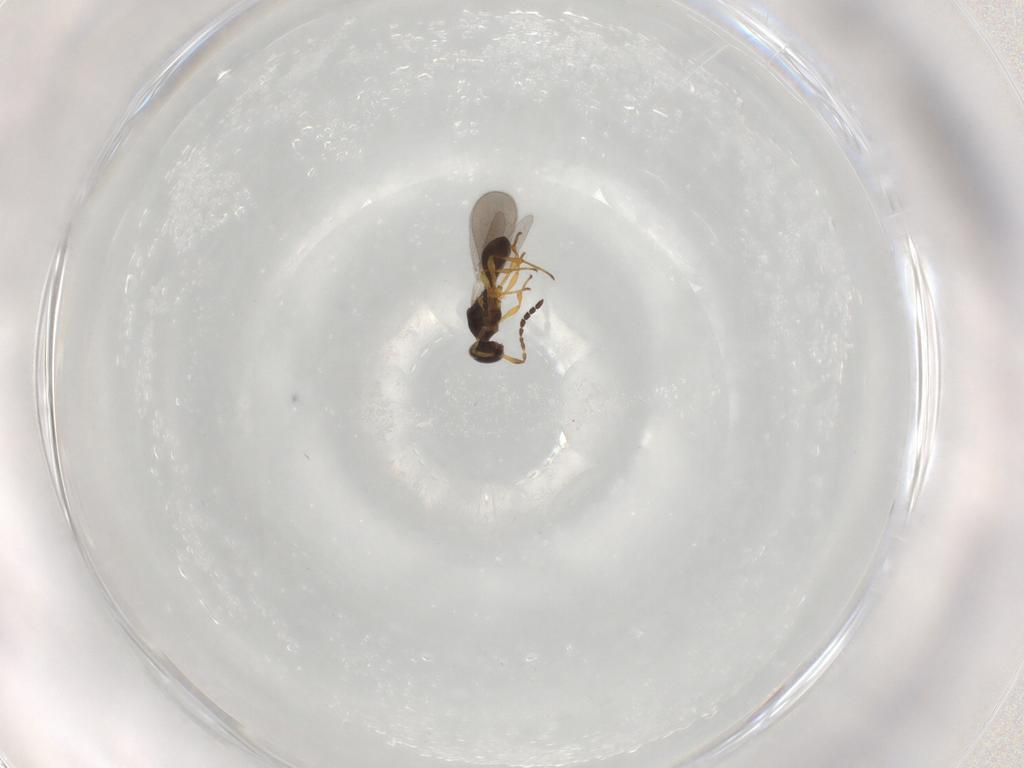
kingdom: Animalia
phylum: Arthropoda
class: Insecta
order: Hymenoptera
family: Platygastridae
